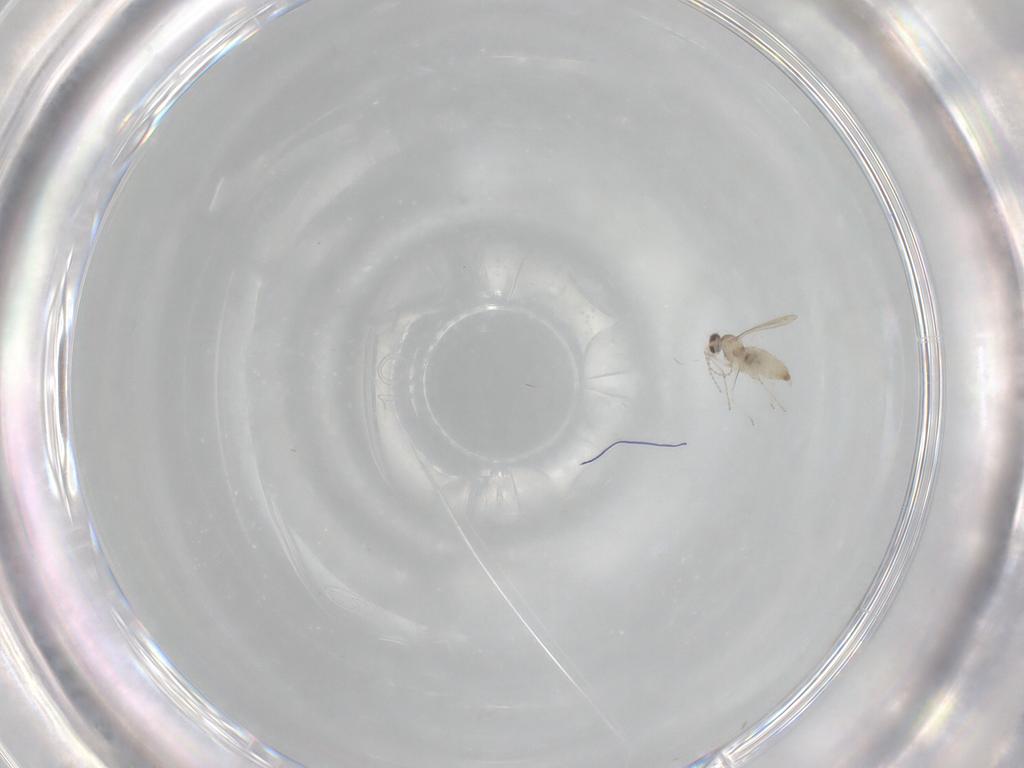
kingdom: Animalia
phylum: Arthropoda
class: Insecta
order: Diptera
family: Cecidomyiidae
